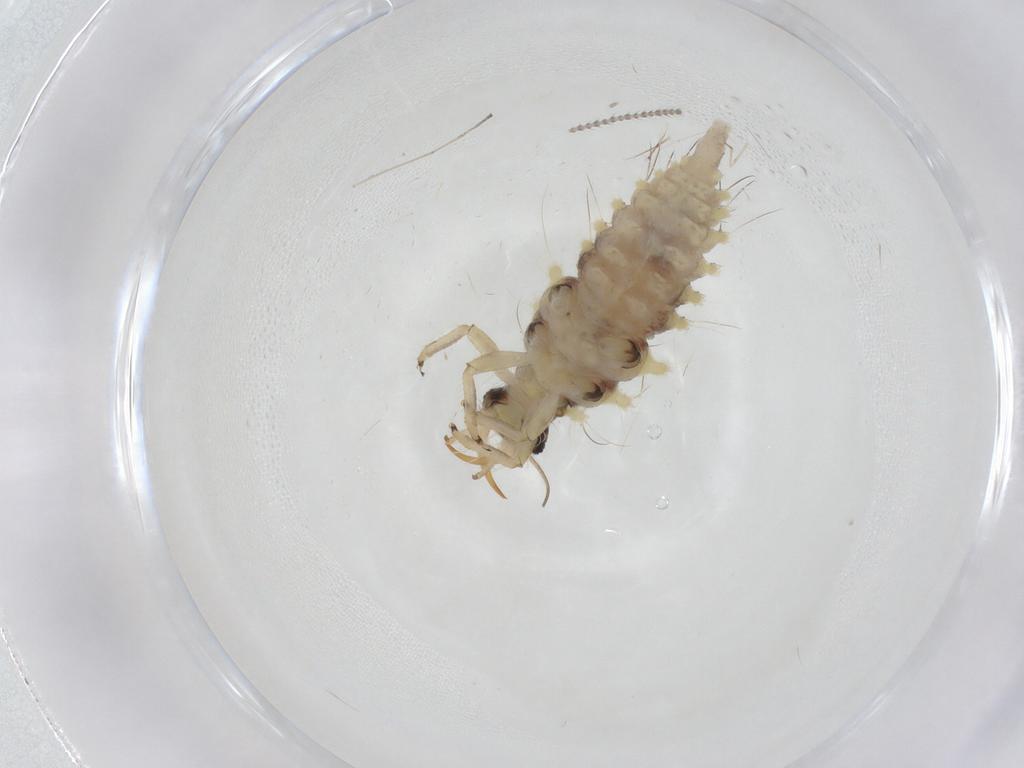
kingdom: Animalia
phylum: Arthropoda
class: Insecta
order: Neuroptera
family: Chrysopidae
